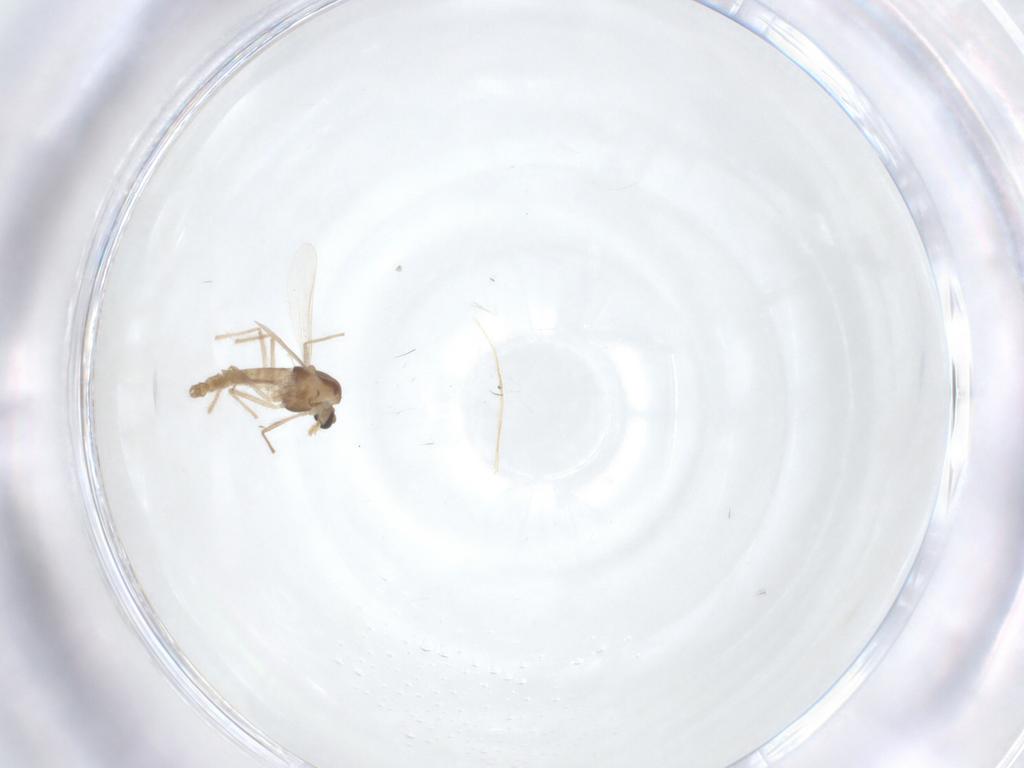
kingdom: Animalia
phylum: Arthropoda
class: Insecta
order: Diptera
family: Chironomidae
